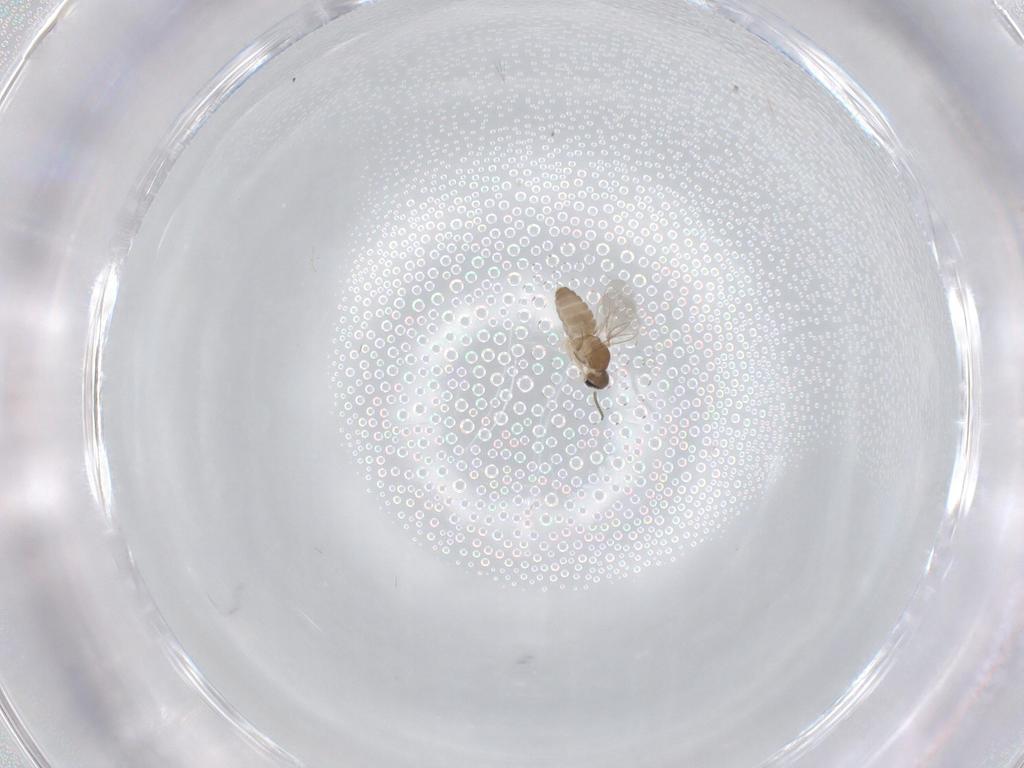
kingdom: Animalia
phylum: Arthropoda
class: Insecta
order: Diptera
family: Cecidomyiidae
